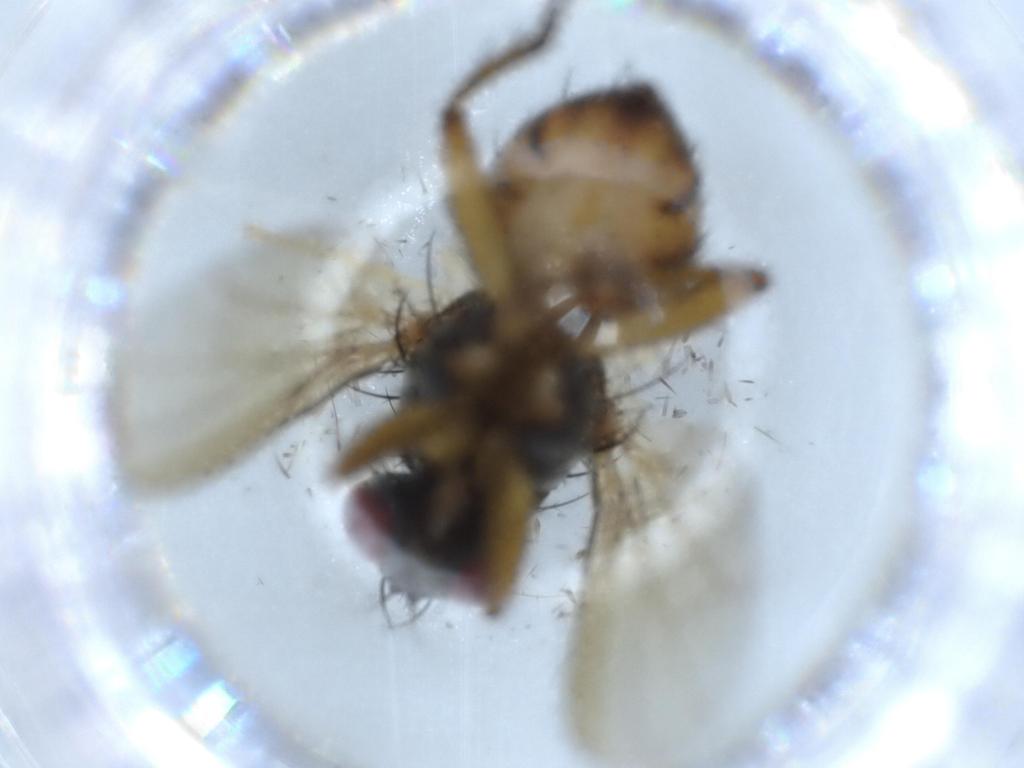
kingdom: Animalia
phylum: Arthropoda
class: Insecta
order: Diptera
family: Muscidae
